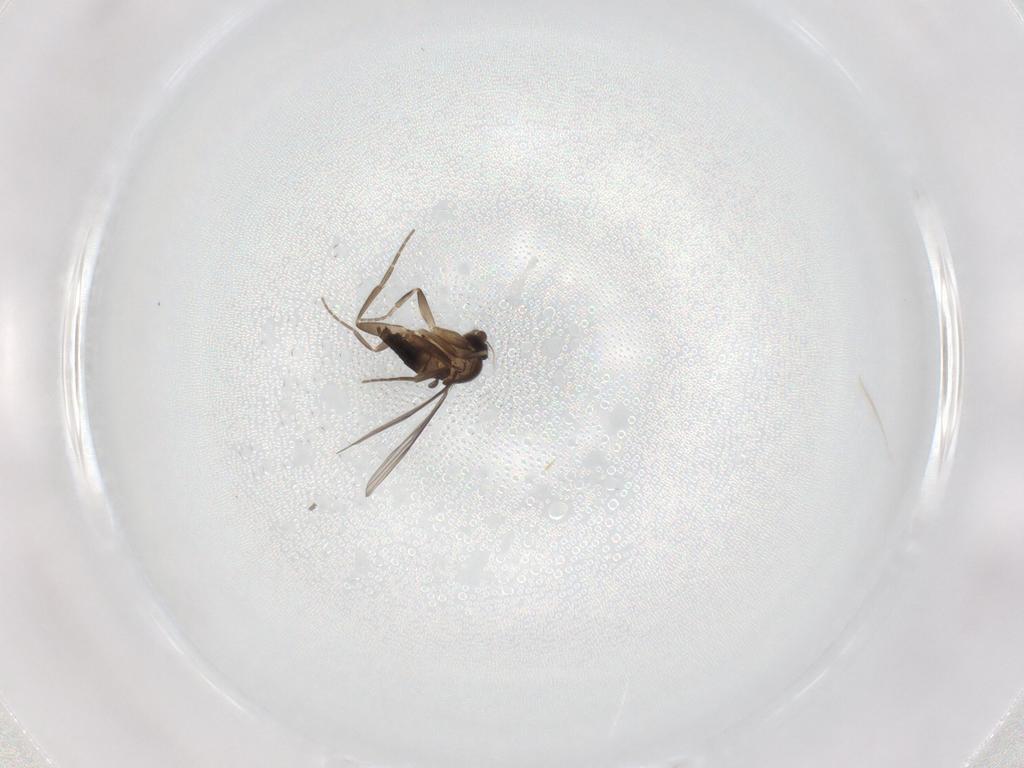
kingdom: Animalia
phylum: Arthropoda
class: Insecta
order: Diptera
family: Phoridae
